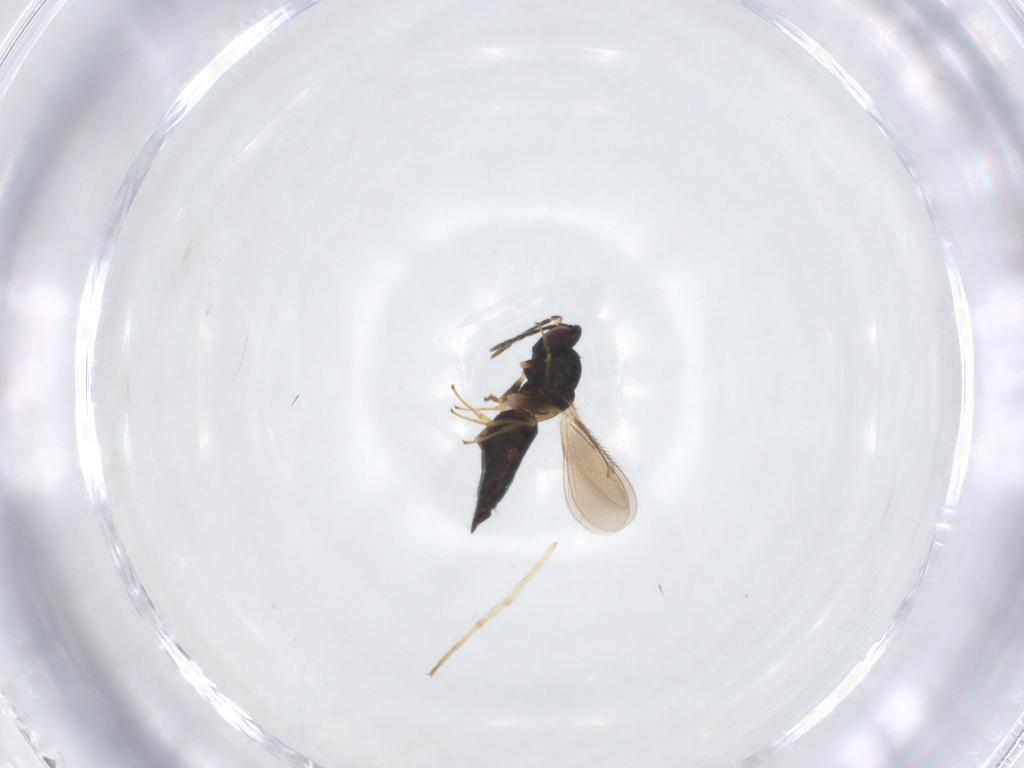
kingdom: Animalia
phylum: Arthropoda
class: Insecta
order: Hymenoptera
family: Eulophidae
